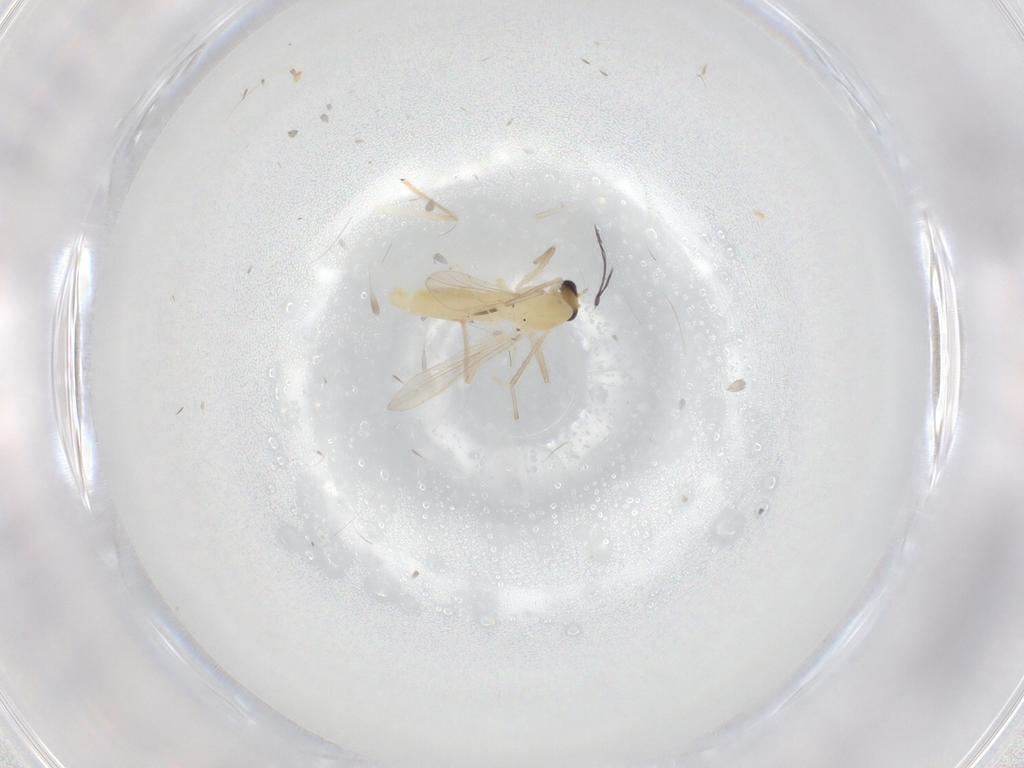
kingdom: Animalia
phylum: Arthropoda
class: Insecta
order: Diptera
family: Chironomidae
